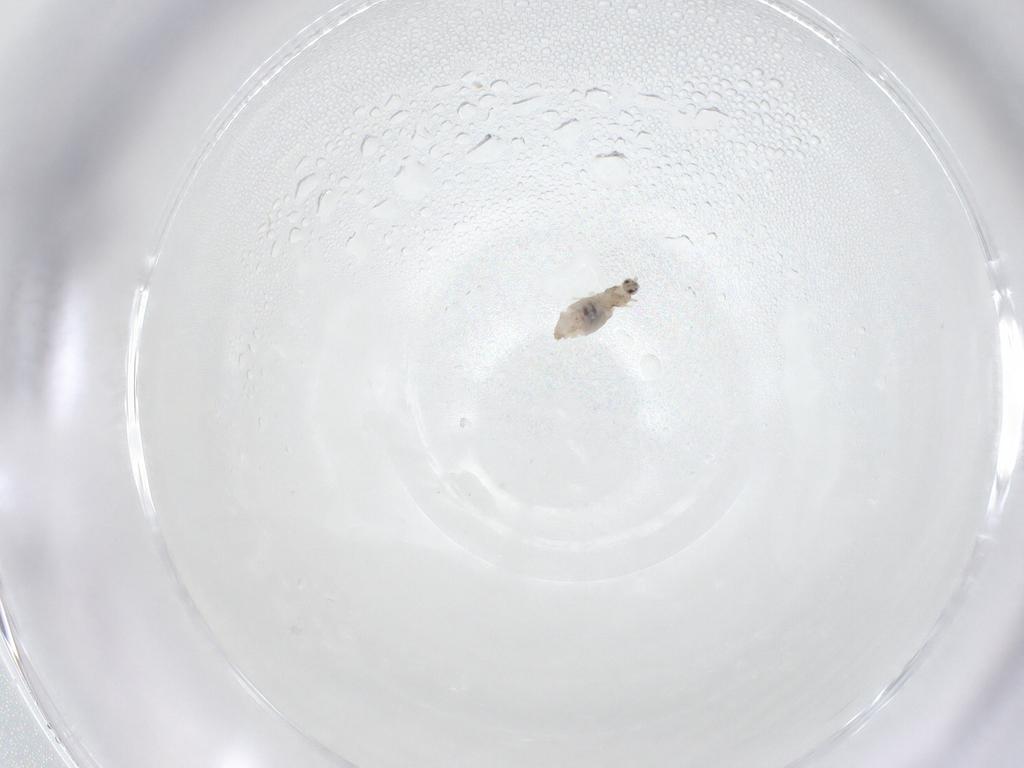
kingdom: Animalia
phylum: Arthropoda
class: Insecta
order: Diptera
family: Cecidomyiidae
